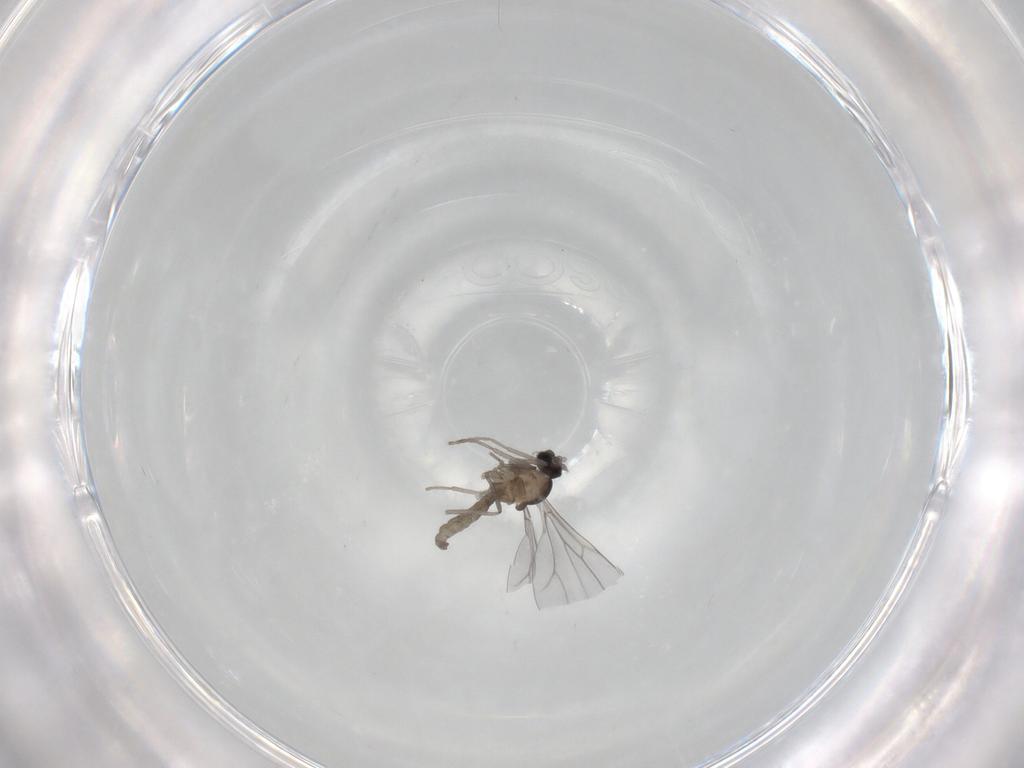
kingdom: Animalia
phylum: Arthropoda
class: Insecta
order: Diptera
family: Cecidomyiidae
